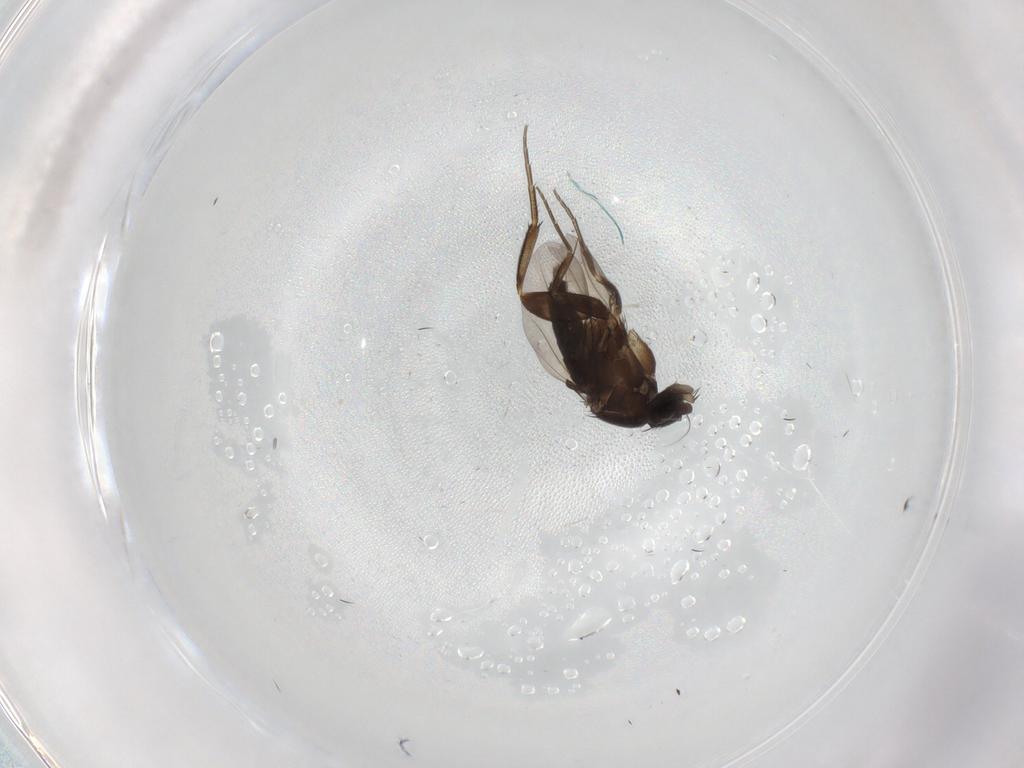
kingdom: Animalia
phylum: Arthropoda
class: Insecta
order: Diptera
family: Phoridae
